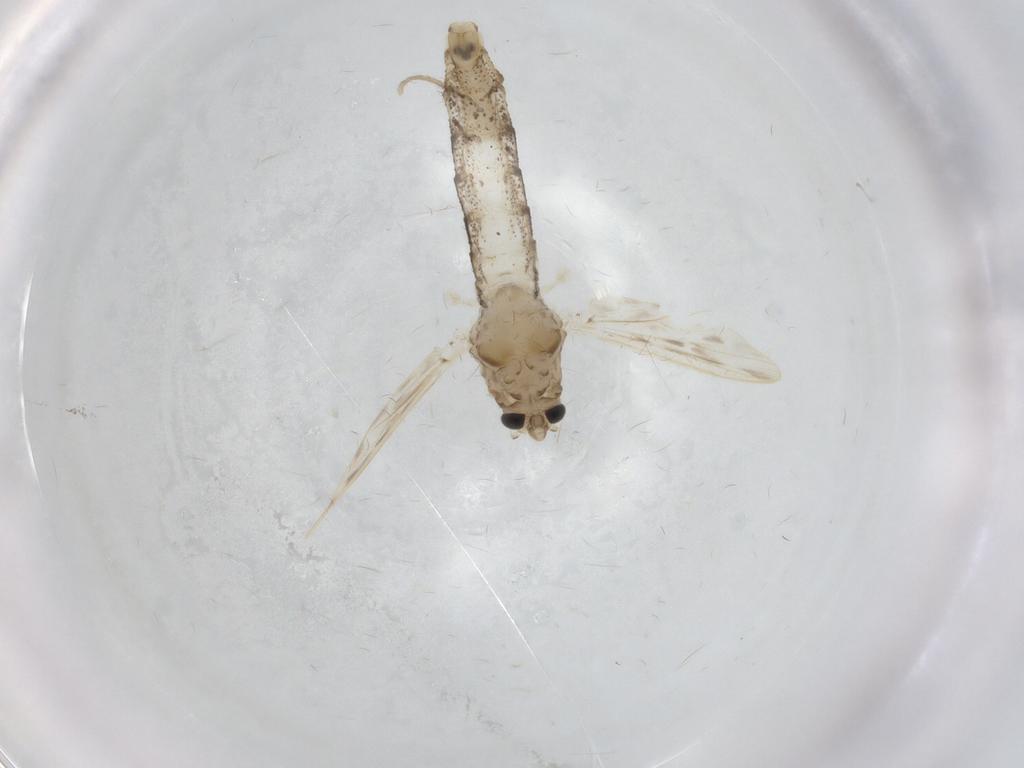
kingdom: Animalia
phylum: Arthropoda
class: Insecta
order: Diptera
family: Chaoboridae
